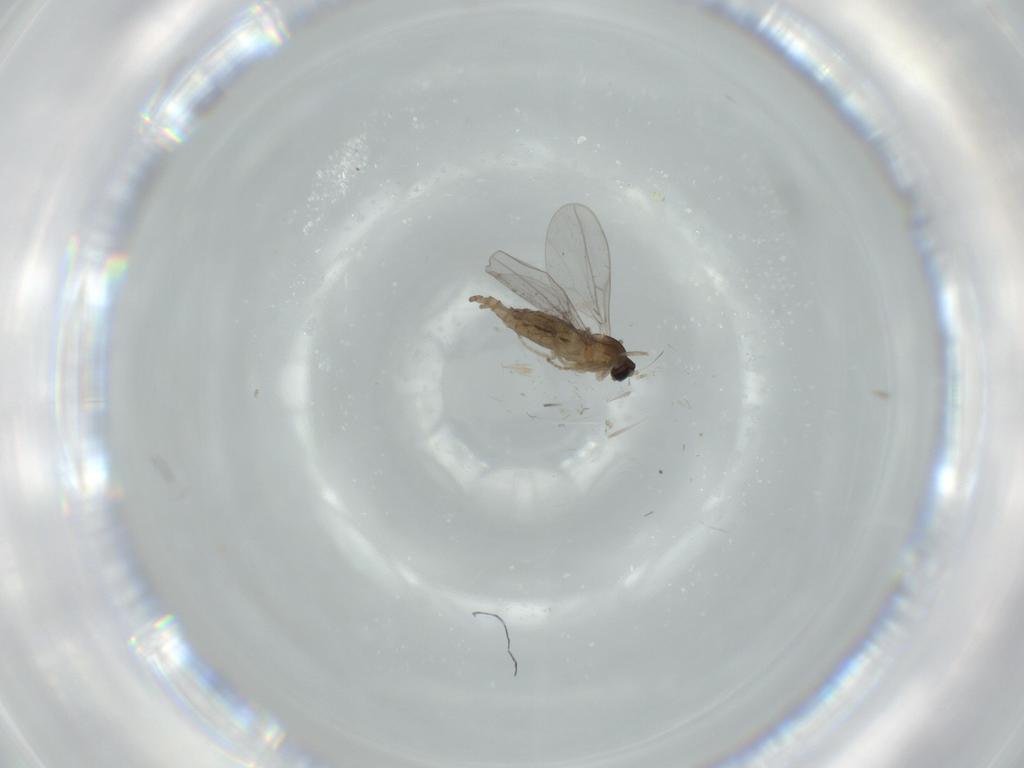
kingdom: Animalia
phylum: Arthropoda
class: Insecta
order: Diptera
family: Cecidomyiidae
